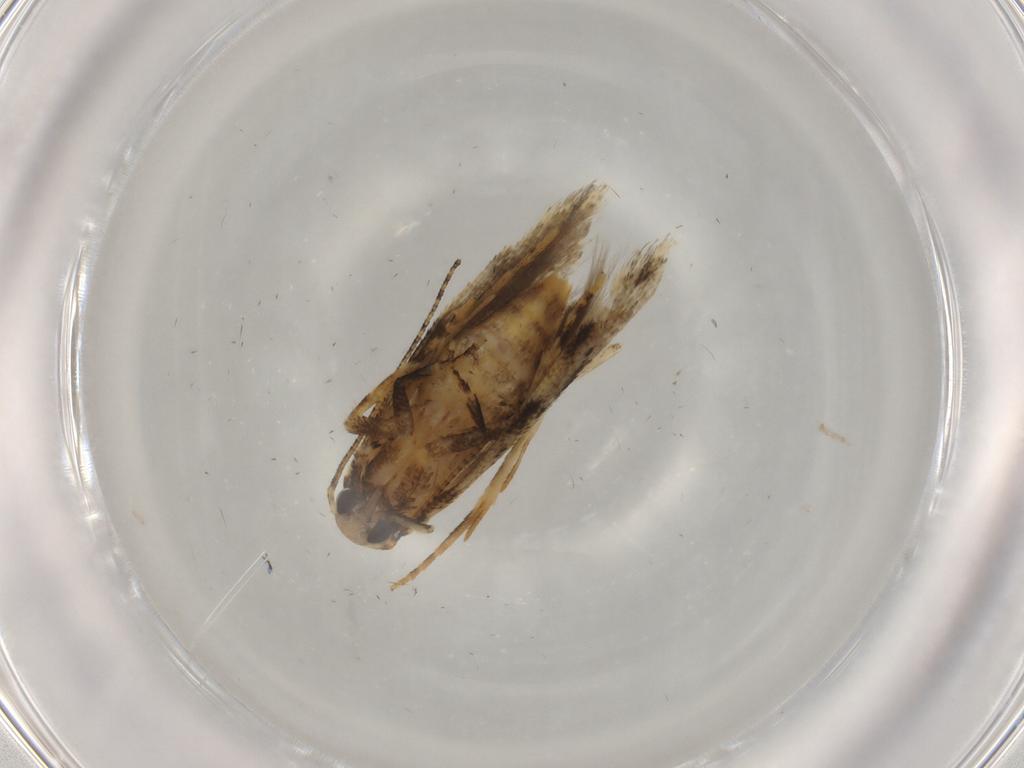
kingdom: Animalia
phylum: Arthropoda
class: Insecta
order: Lepidoptera
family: Gelechiidae
